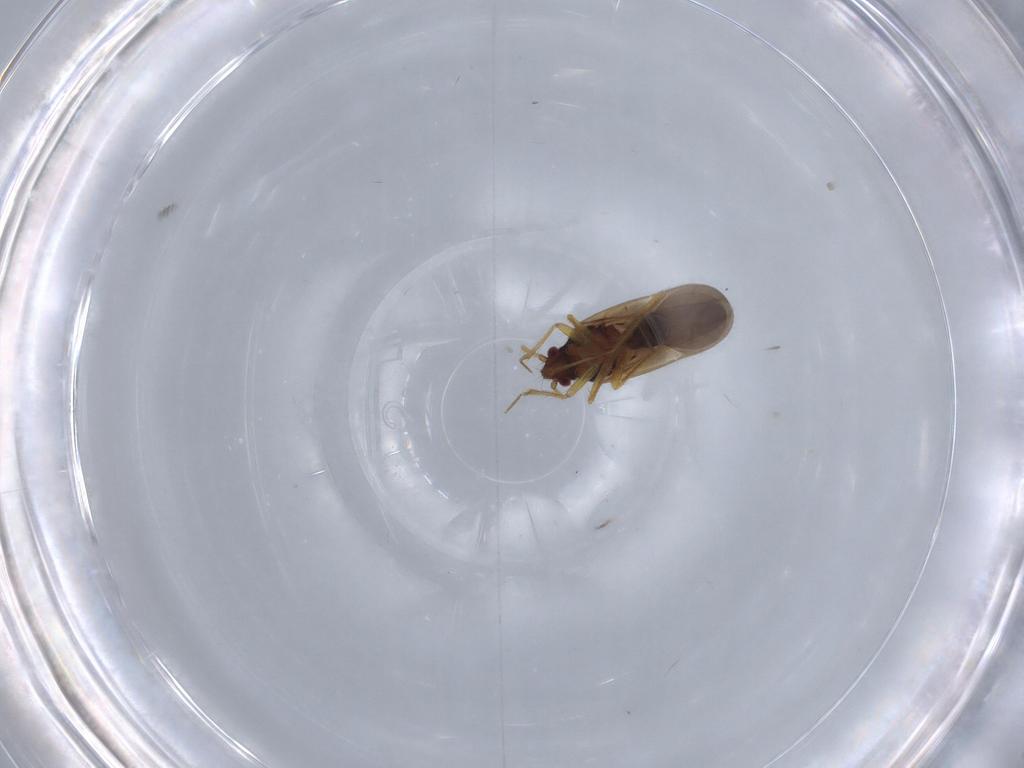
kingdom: Animalia
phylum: Arthropoda
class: Insecta
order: Hemiptera
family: Ceratocombidae
